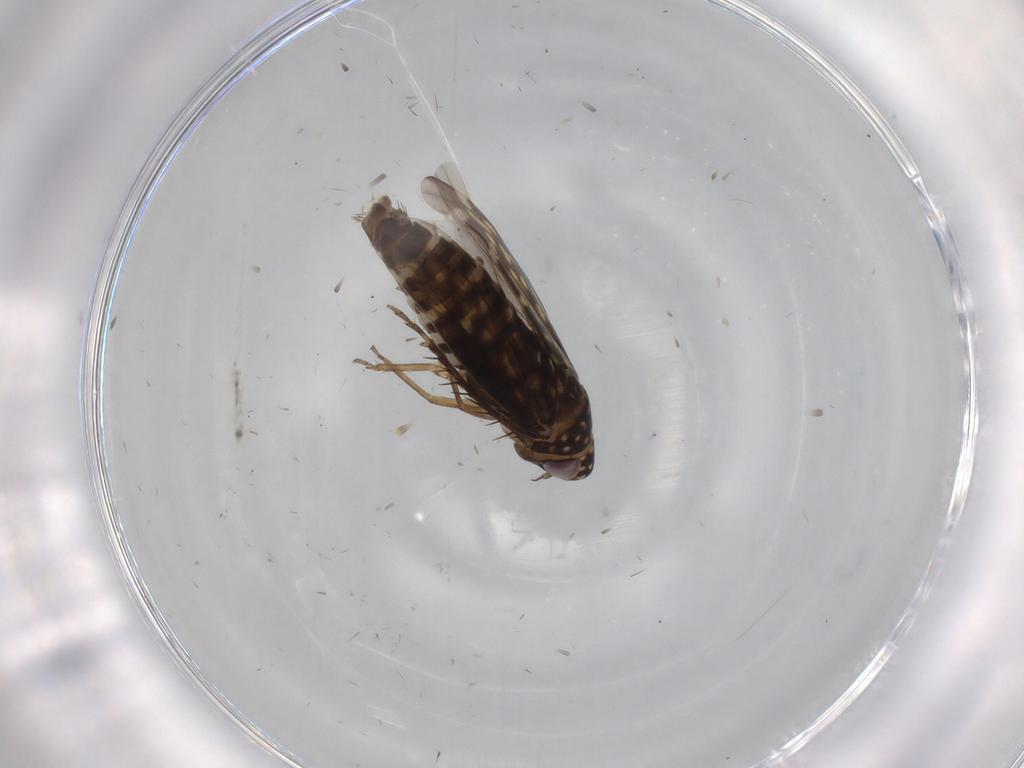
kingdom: Animalia
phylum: Arthropoda
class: Insecta
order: Hemiptera
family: Cicadellidae
